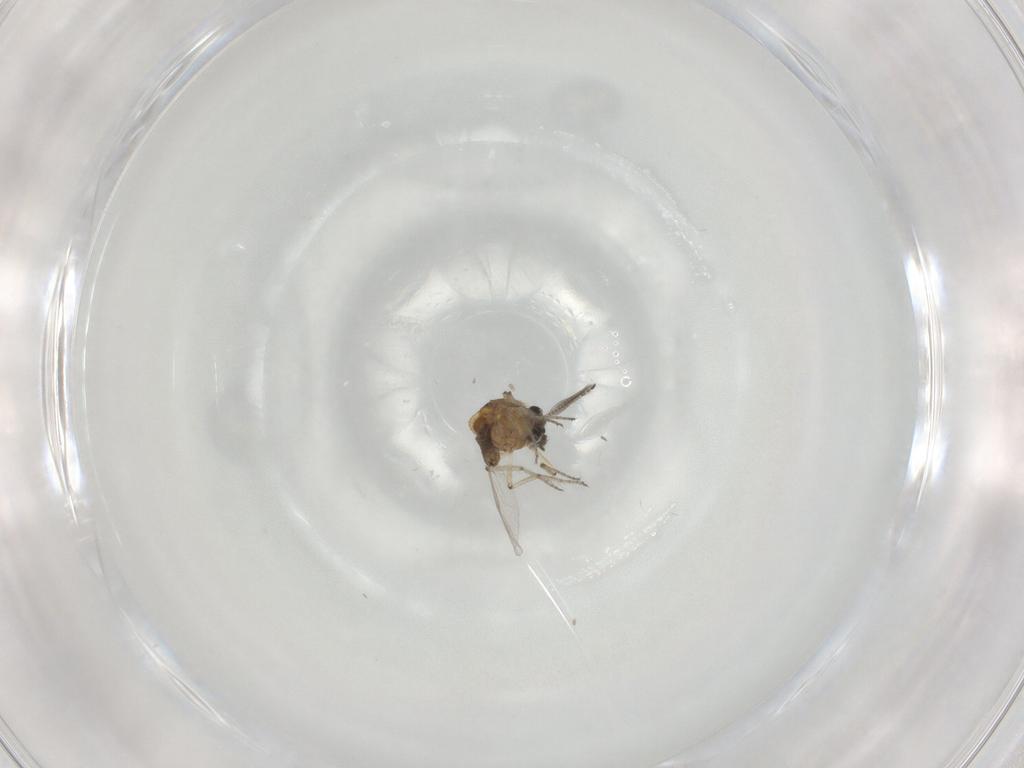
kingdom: Animalia
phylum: Arthropoda
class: Insecta
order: Diptera
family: Ceratopogonidae
